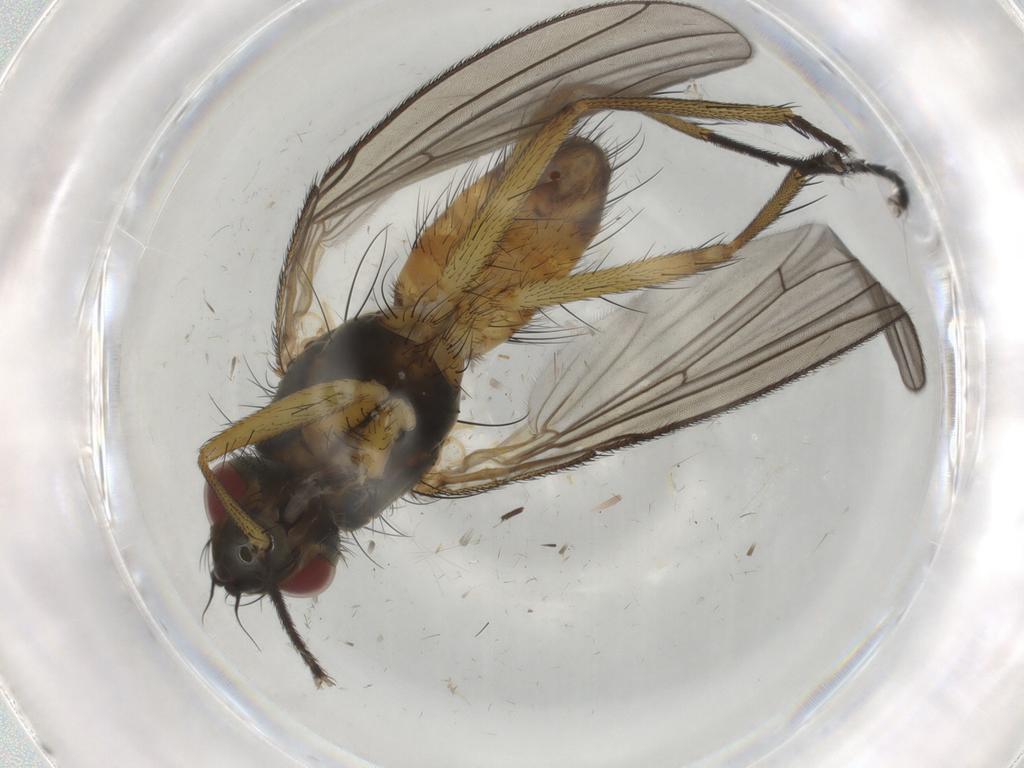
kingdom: Animalia
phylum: Arthropoda
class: Insecta
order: Diptera
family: Muscidae
